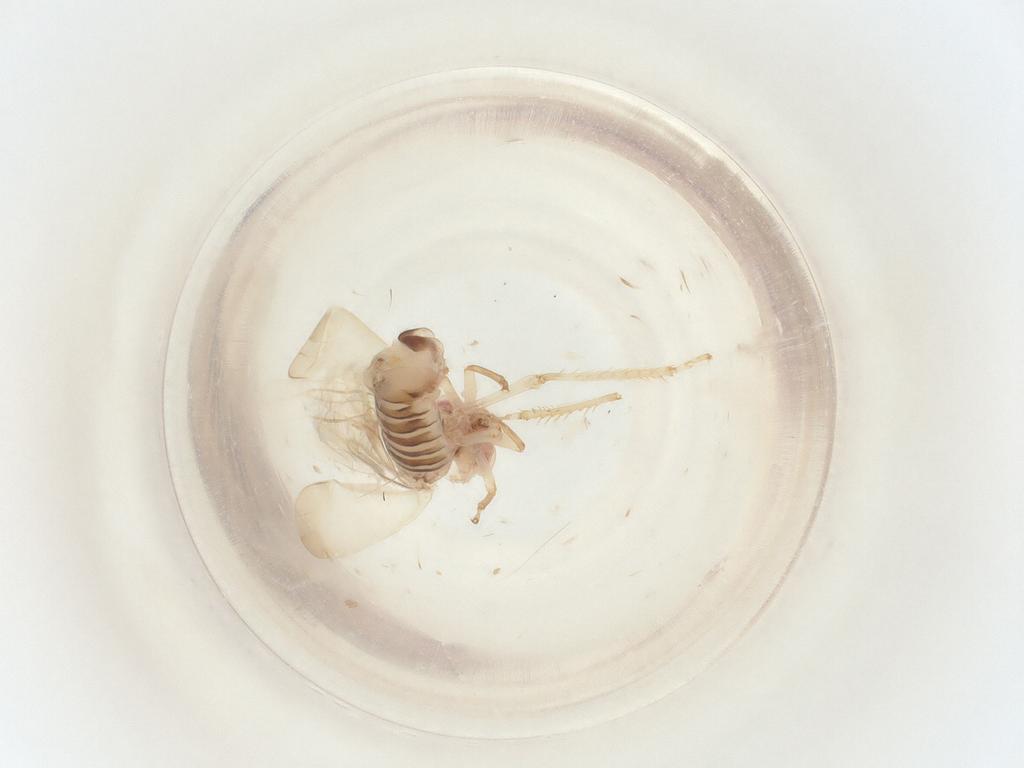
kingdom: Animalia
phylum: Arthropoda
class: Insecta
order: Hemiptera
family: Cicadellidae
